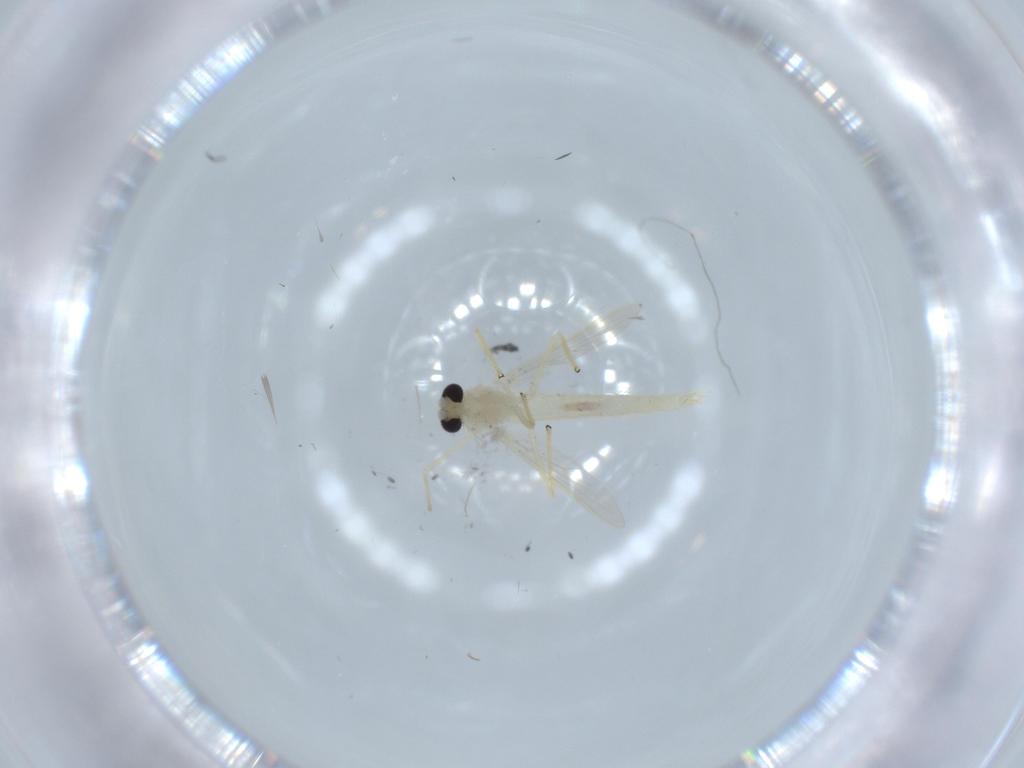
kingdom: Animalia
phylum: Arthropoda
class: Insecta
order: Diptera
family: Chironomidae
